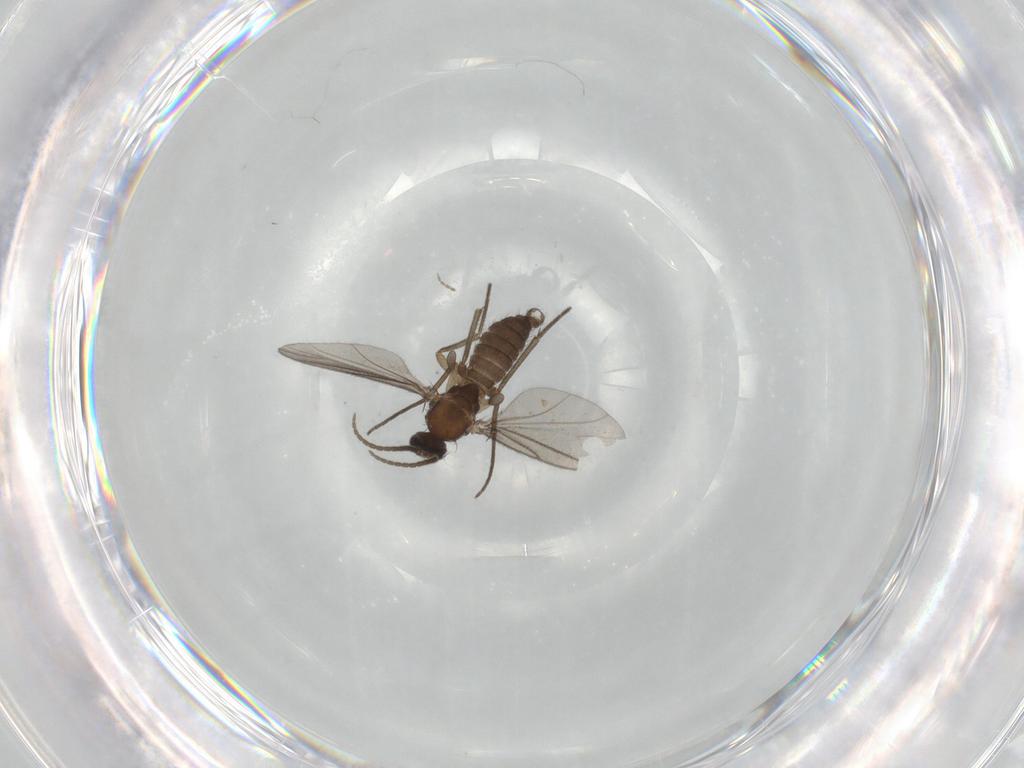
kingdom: Animalia
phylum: Arthropoda
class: Insecta
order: Diptera
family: Sciaridae
